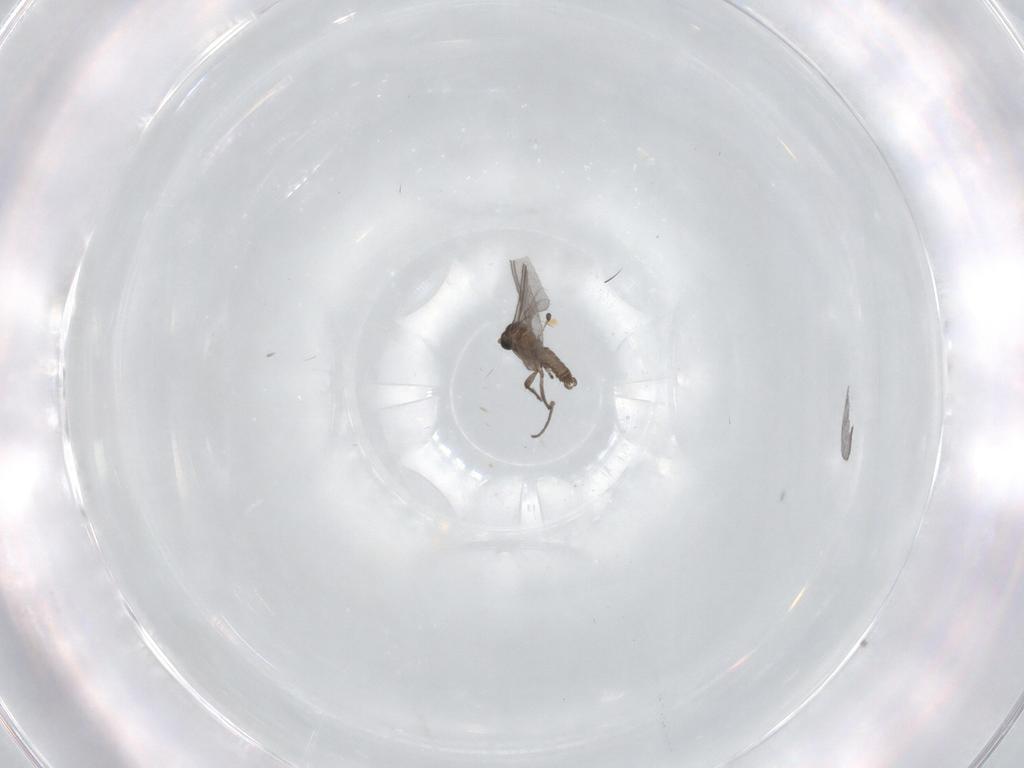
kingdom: Animalia
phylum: Arthropoda
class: Insecta
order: Diptera
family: Sciaridae
